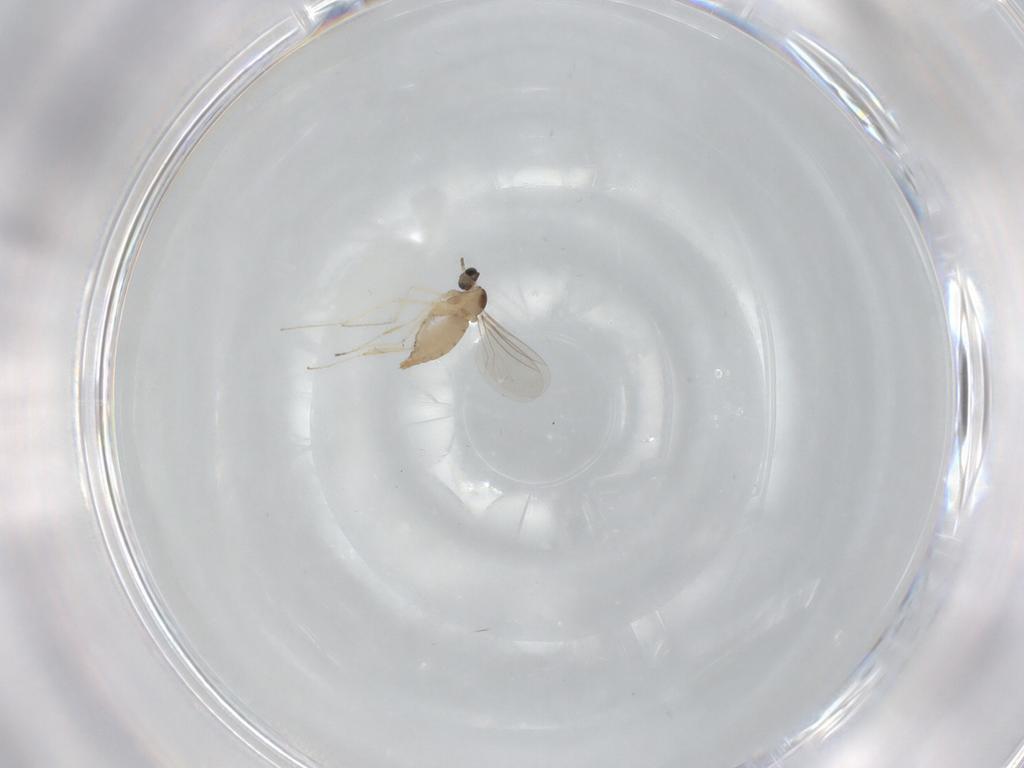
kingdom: Animalia
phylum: Arthropoda
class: Insecta
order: Diptera
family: Cecidomyiidae
